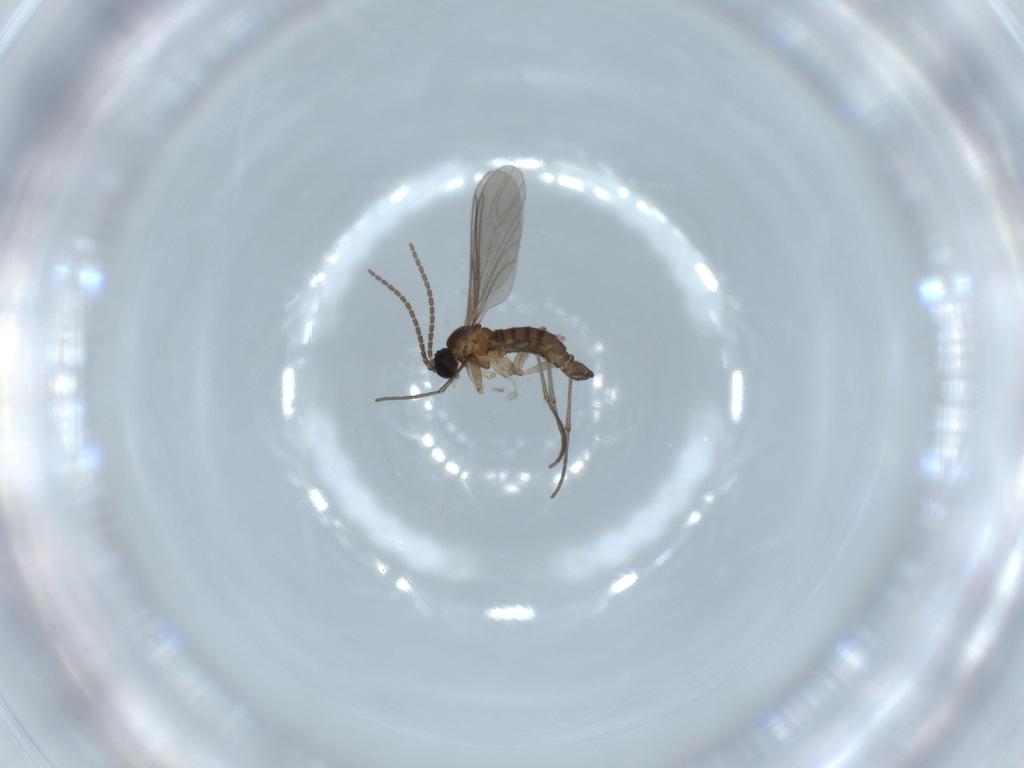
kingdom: Animalia
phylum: Arthropoda
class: Insecta
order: Diptera
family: Sciaridae
